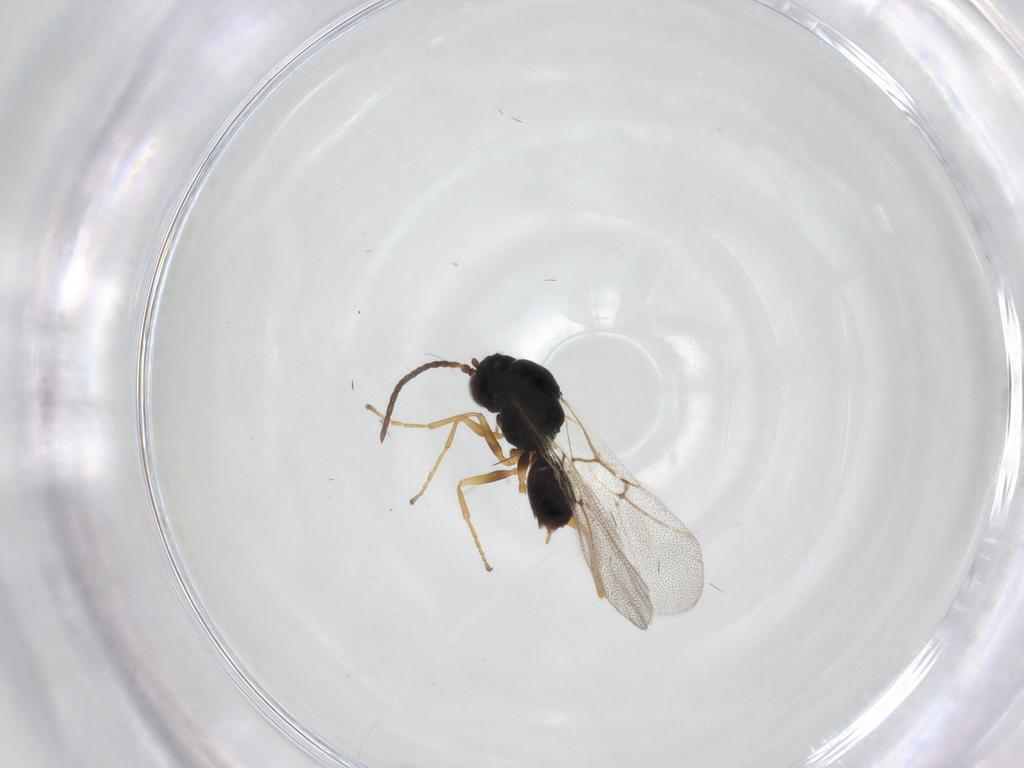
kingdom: Animalia
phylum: Arthropoda
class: Insecta
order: Hymenoptera
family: Cynipidae
